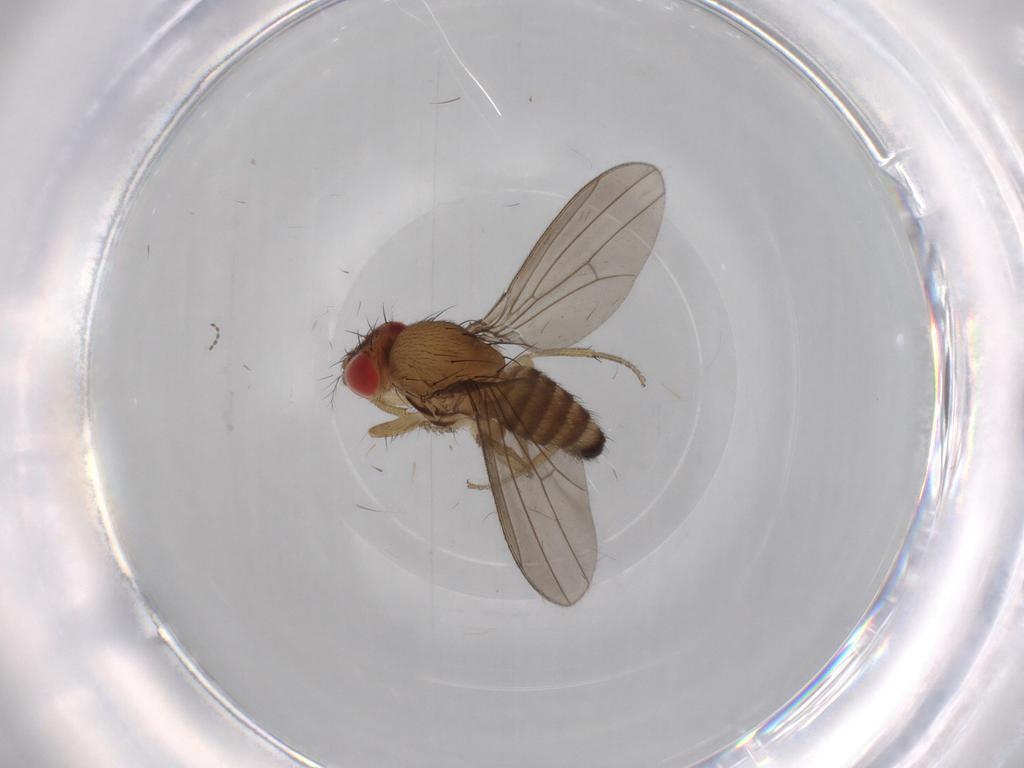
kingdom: Animalia
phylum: Arthropoda
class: Insecta
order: Diptera
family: Drosophilidae
